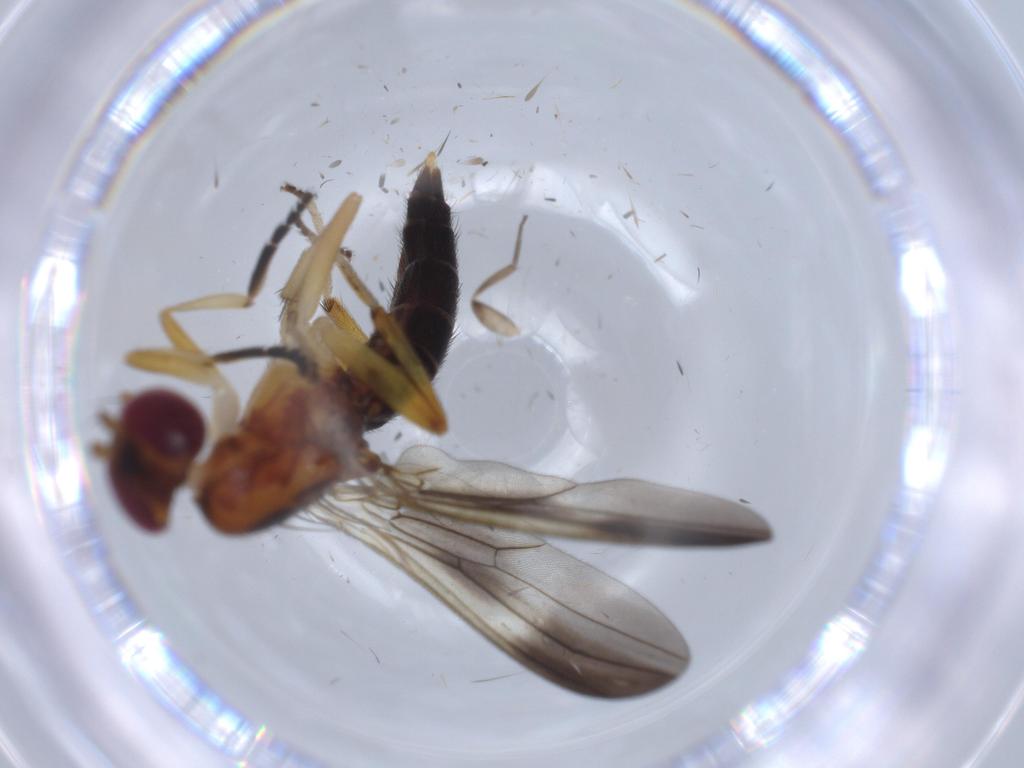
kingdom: Animalia
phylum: Arthropoda
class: Insecta
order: Diptera
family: Clusiidae
